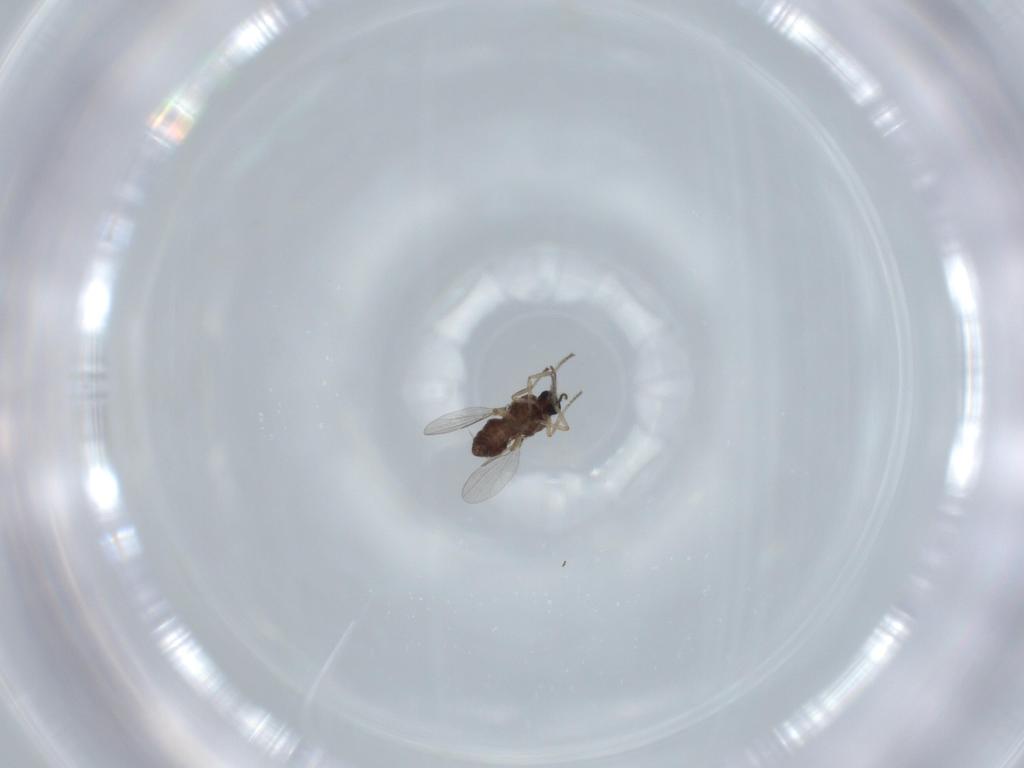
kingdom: Animalia
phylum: Arthropoda
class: Insecta
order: Diptera
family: Ceratopogonidae
